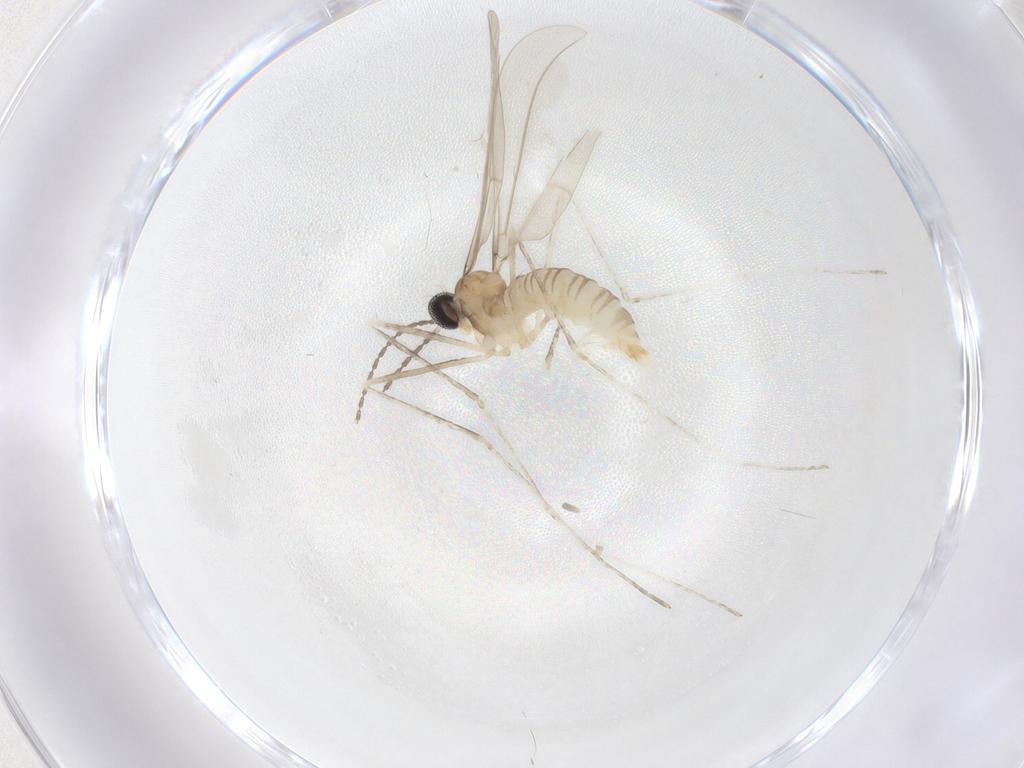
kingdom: Animalia
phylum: Arthropoda
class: Insecta
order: Diptera
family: Cecidomyiidae
